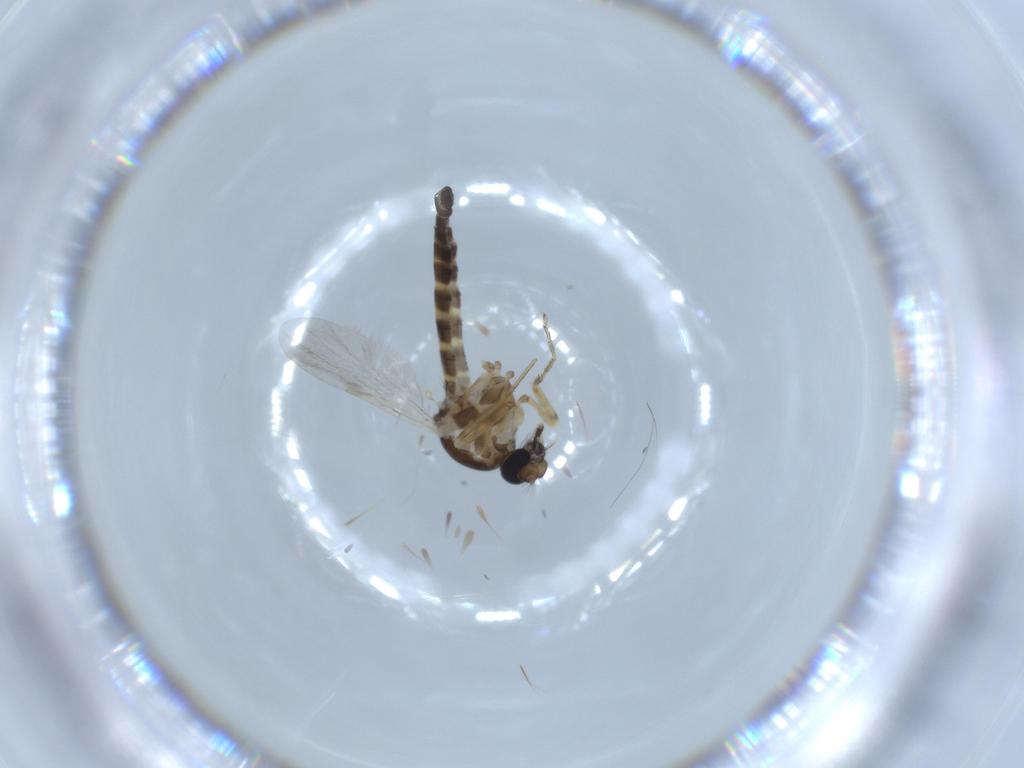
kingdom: Animalia
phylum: Arthropoda
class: Insecta
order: Diptera
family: Ceratopogonidae
